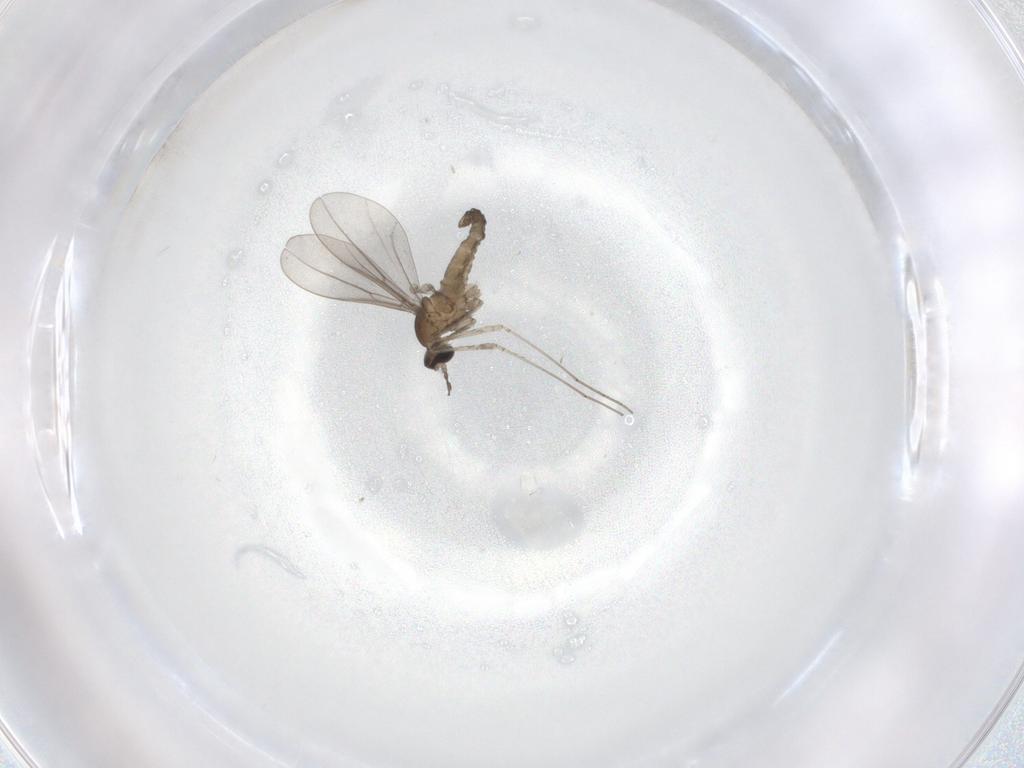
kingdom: Animalia
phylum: Arthropoda
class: Insecta
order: Diptera
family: Cecidomyiidae
